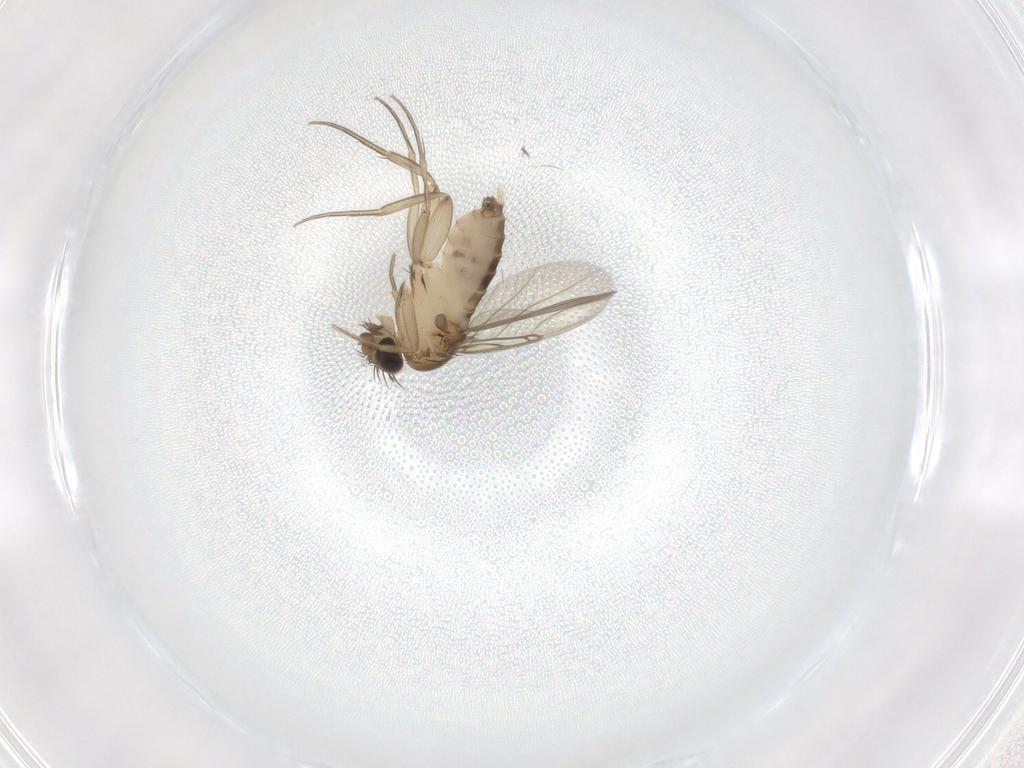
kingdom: Animalia
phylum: Arthropoda
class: Insecta
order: Diptera
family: Phoridae
